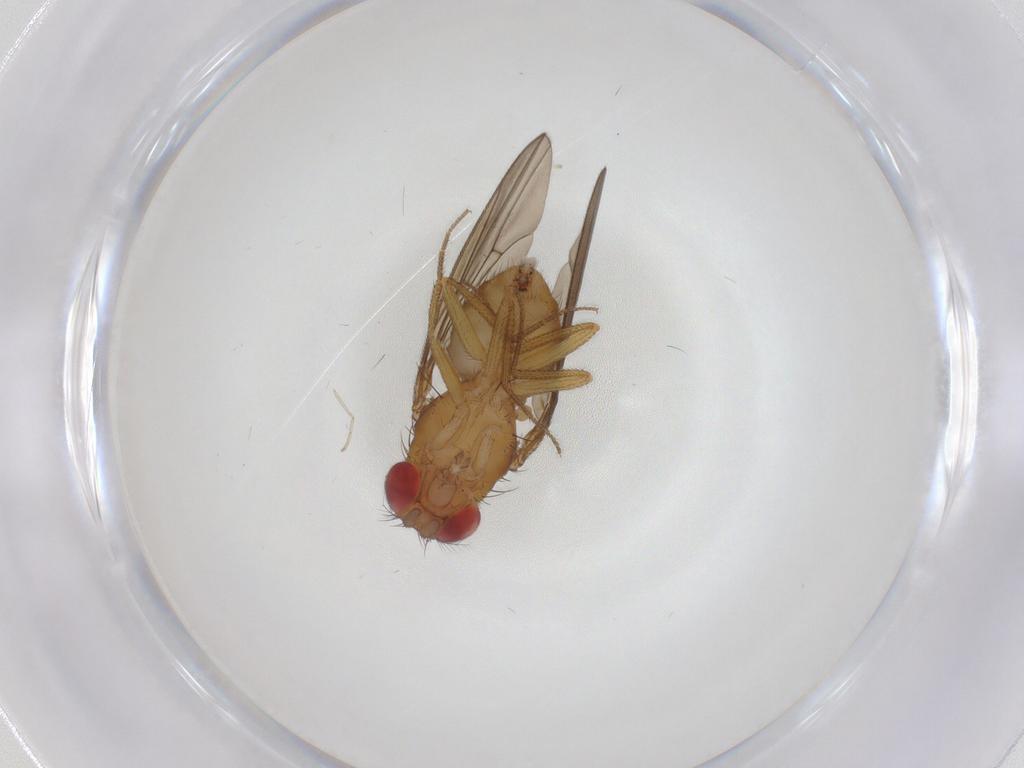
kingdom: Animalia
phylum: Arthropoda
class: Insecta
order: Diptera
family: Drosophilidae
